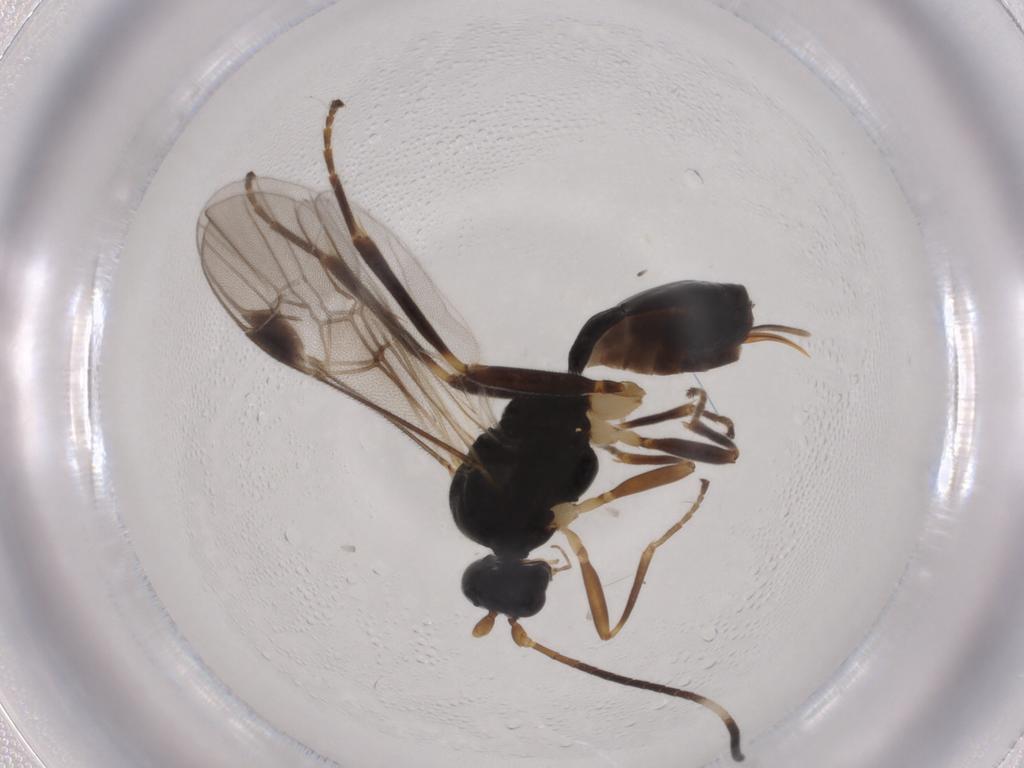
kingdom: Animalia
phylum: Arthropoda
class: Insecta
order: Hymenoptera
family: Braconidae
